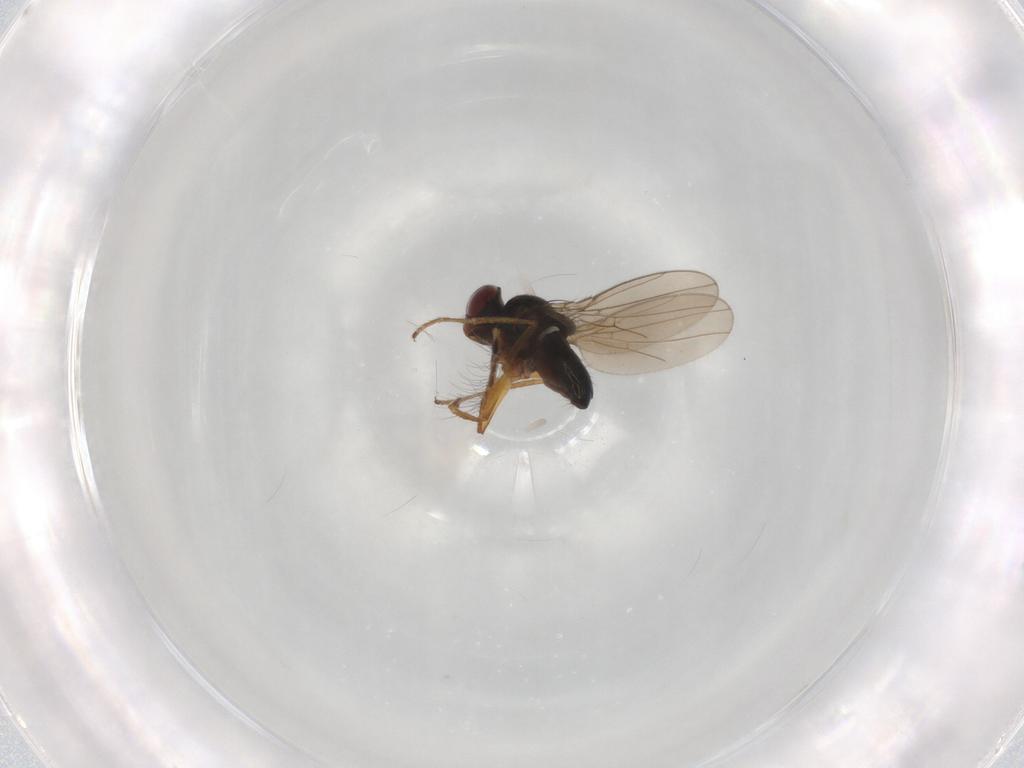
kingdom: Animalia
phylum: Arthropoda
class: Insecta
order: Diptera
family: Ephydridae
